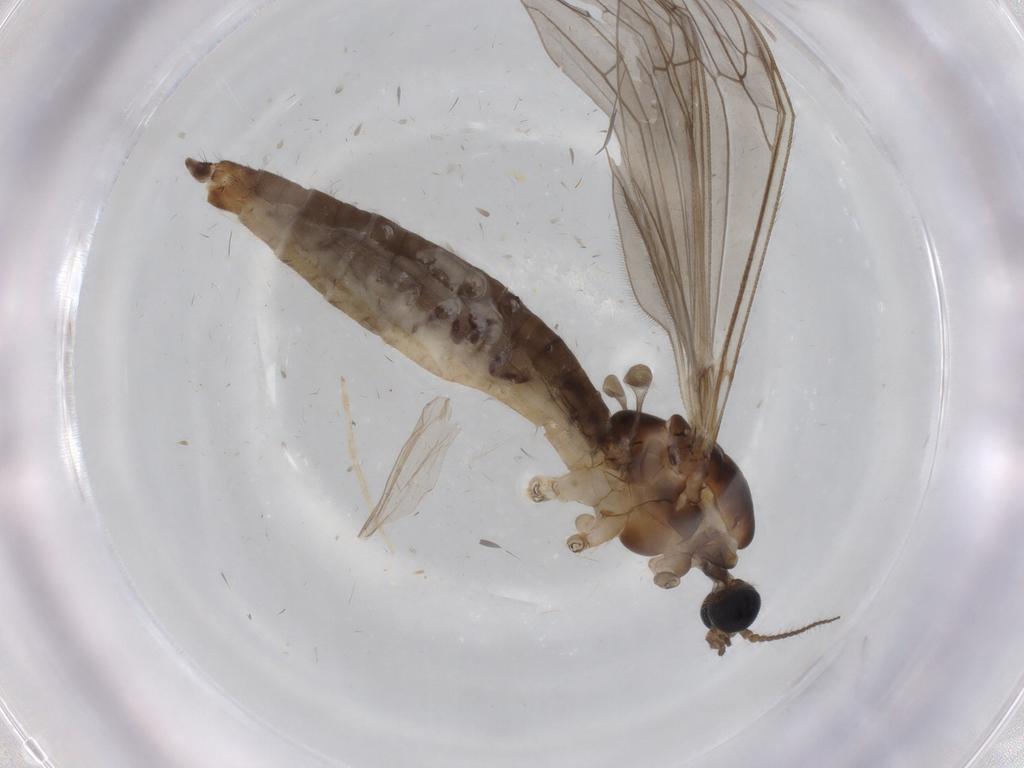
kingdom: Animalia
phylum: Arthropoda
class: Insecta
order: Diptera
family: Phoridae
